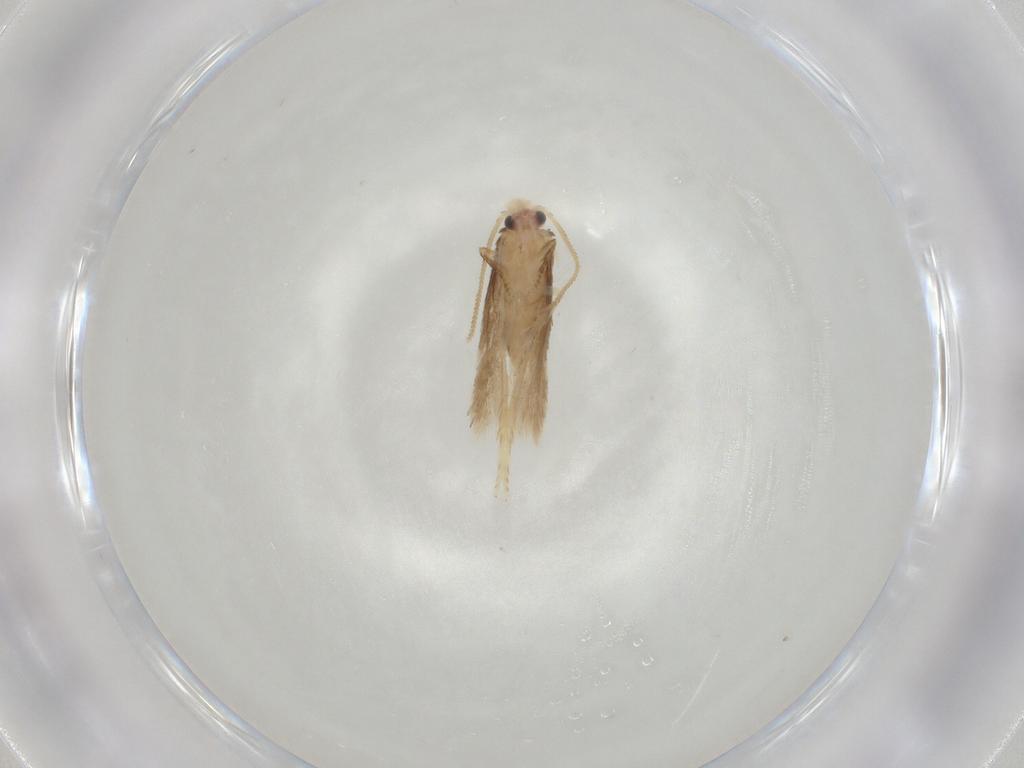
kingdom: Animalia
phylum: Arthropoda
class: Insecta
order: Lepidoptera
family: Nepticulidae
